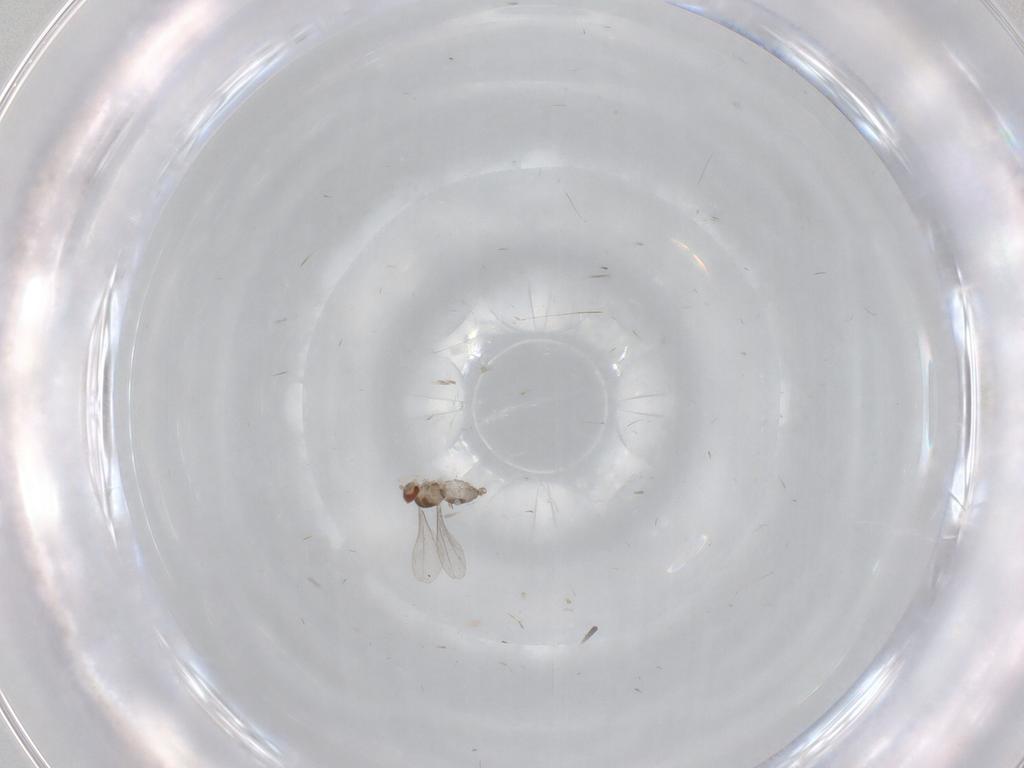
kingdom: Animalia
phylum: Arthropoda
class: Insecta
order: Diptera
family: Cecidomyiidae
